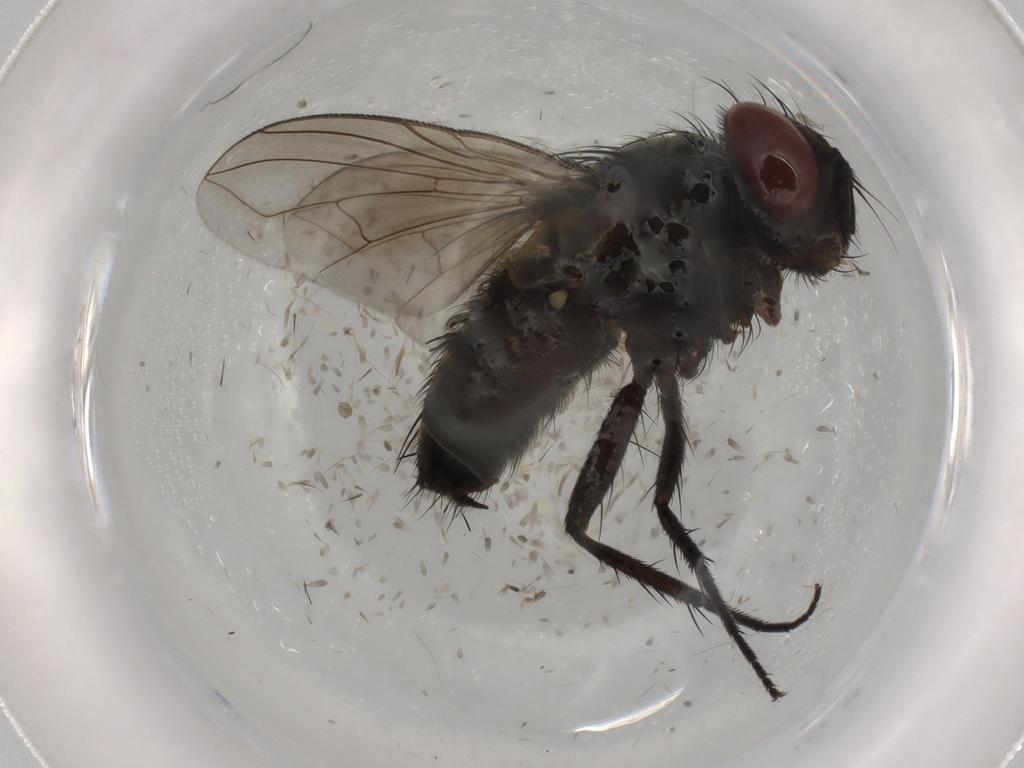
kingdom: Animalia
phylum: Arthropoda
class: Insecta
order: Diptera
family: Tachinidae
